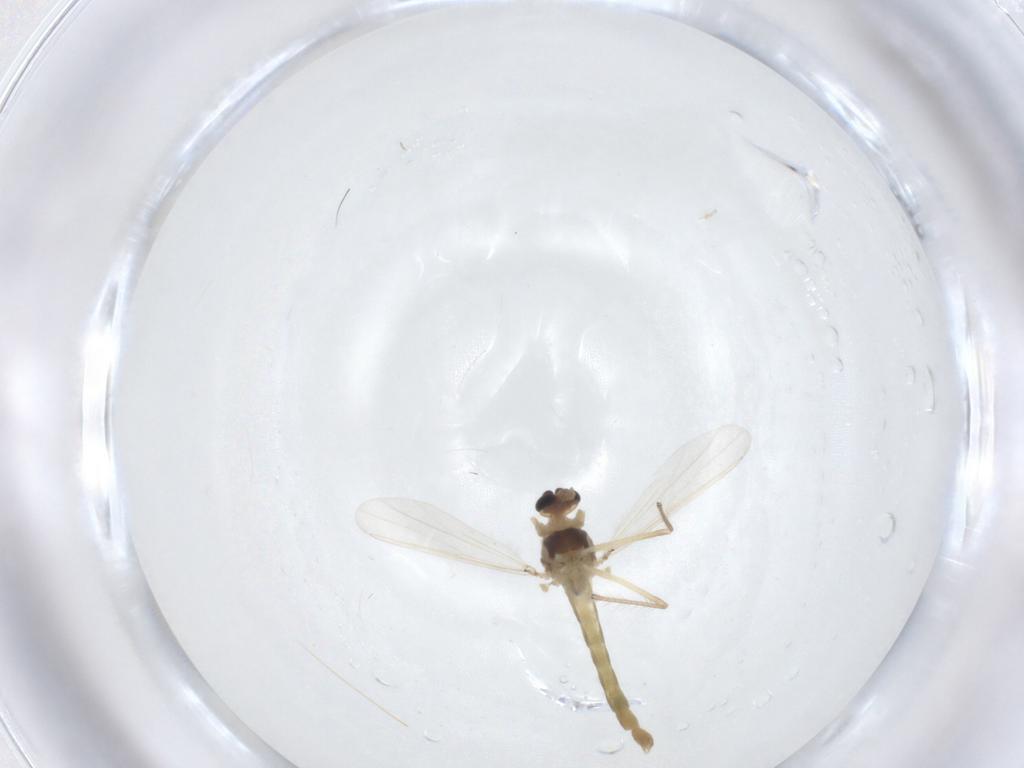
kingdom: Animalia
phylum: Arthropoda
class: Insecta
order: Diptera
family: Chironomidae
